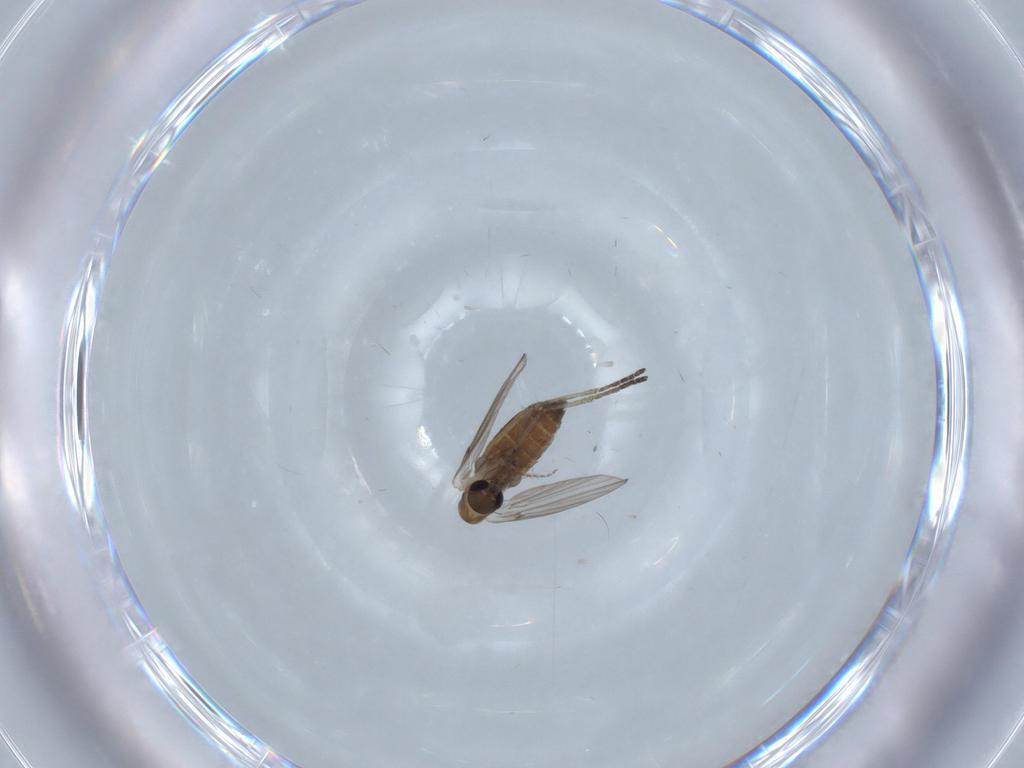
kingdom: Animalia
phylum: Arthropoda
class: Insecta
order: Diptera
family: Psychodidae
